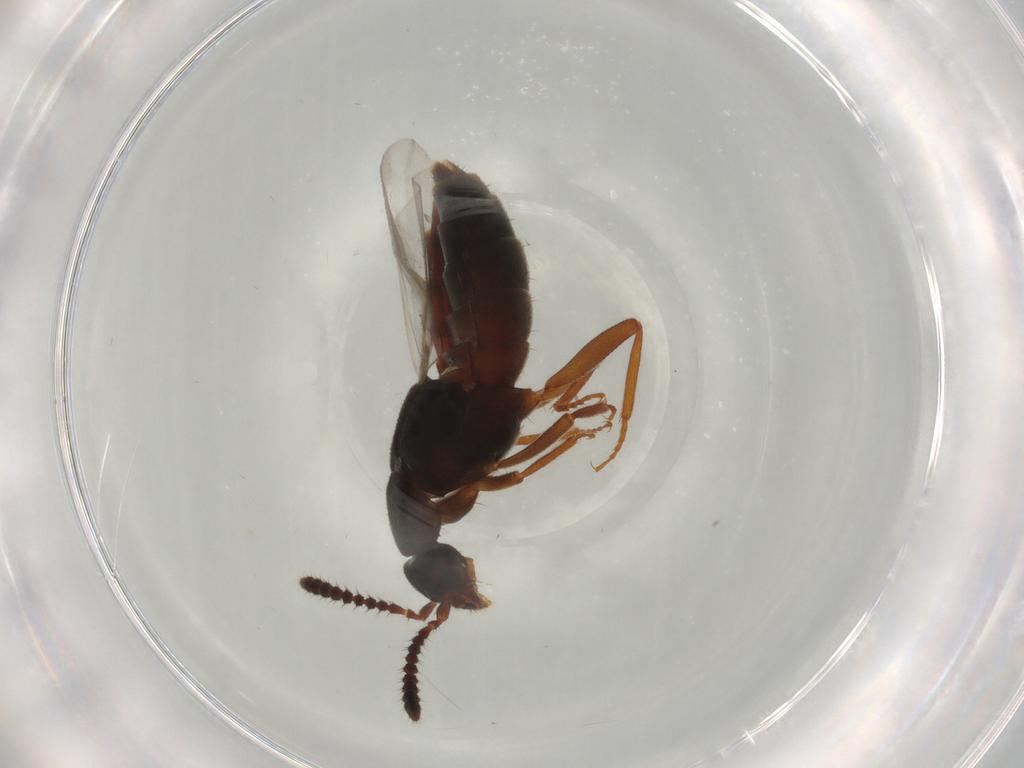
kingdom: Animalia
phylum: Arthropoda
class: Insecta
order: Coleoptera
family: Staphylinidae
